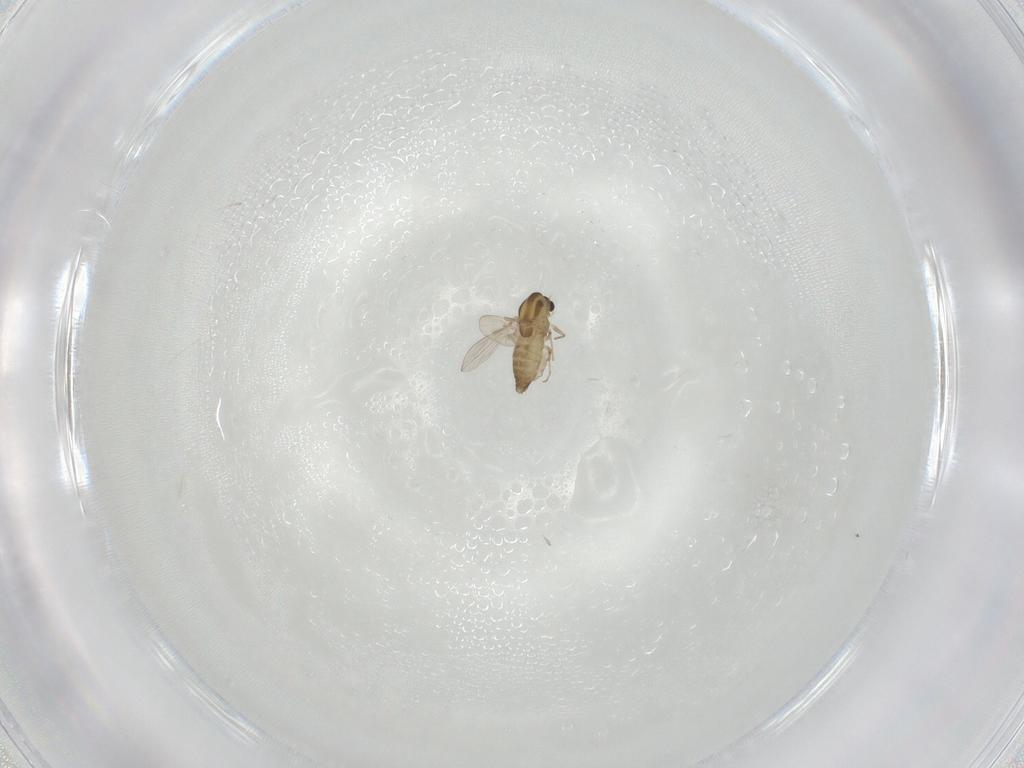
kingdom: Animalia
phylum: Arthropoda
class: Insecta
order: Diptera
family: Chironomidae
